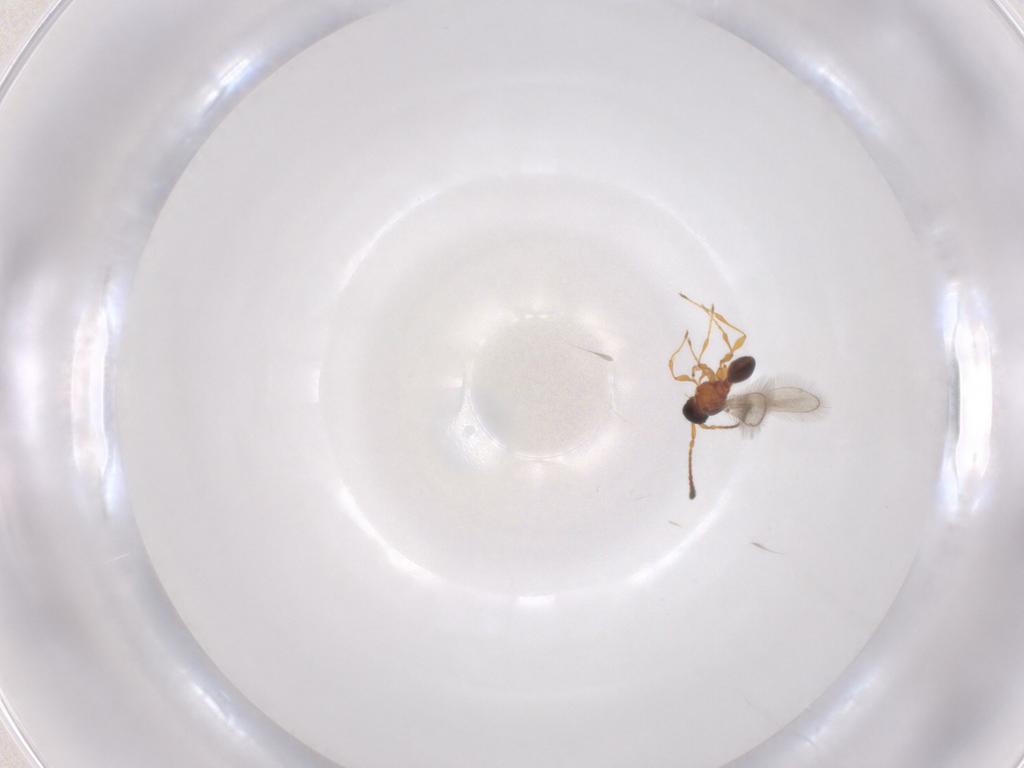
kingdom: Animalia
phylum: Arthropoda
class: Insecta
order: Hymenoptera
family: Diapriidae
